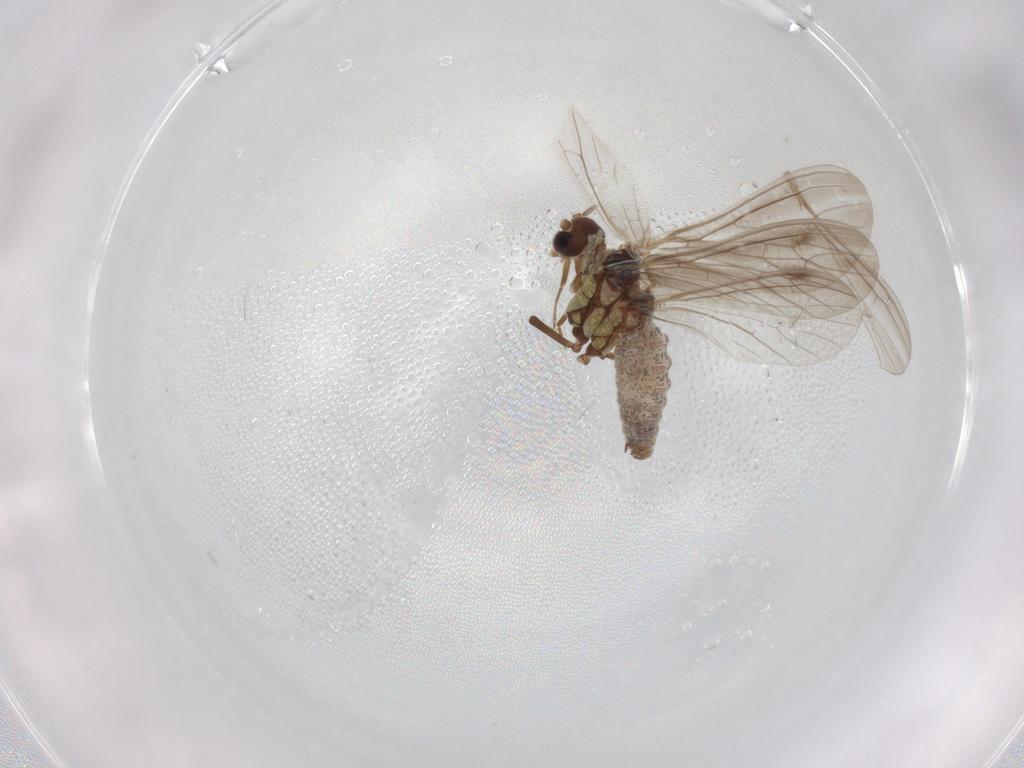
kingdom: Animalia
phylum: Arthropoda
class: Insecta
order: Neuroptera
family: Coniopterygidae
